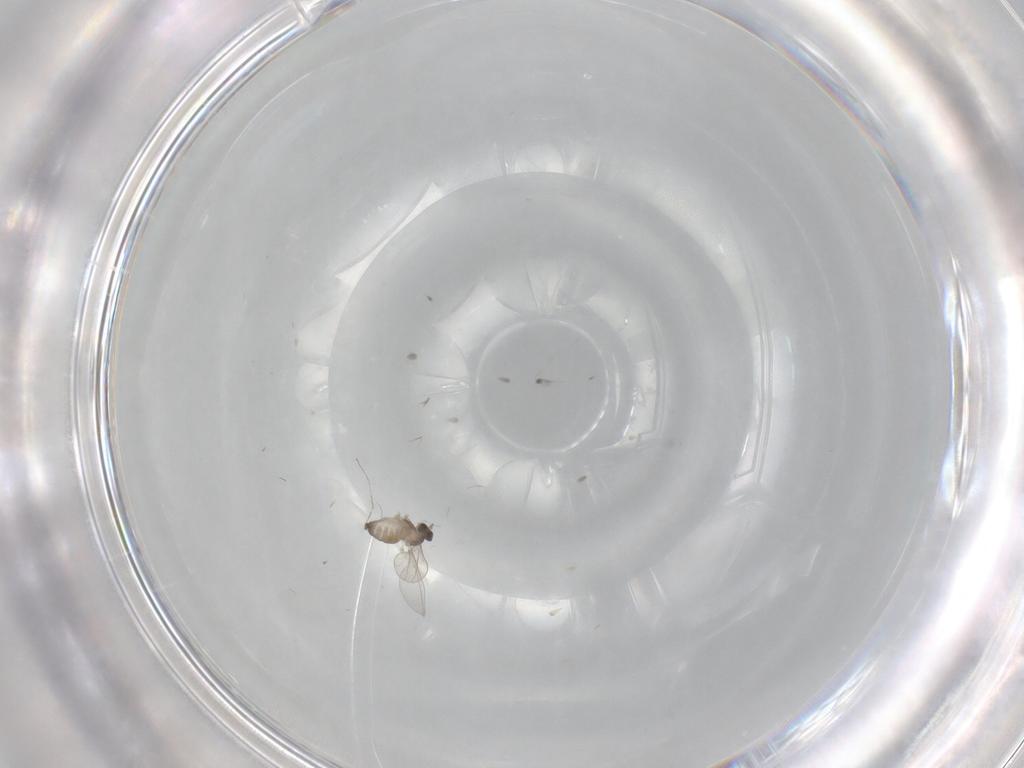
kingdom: Animalia
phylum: Arthropoda
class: Insecta
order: Diptera
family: Cecidomyiidae
